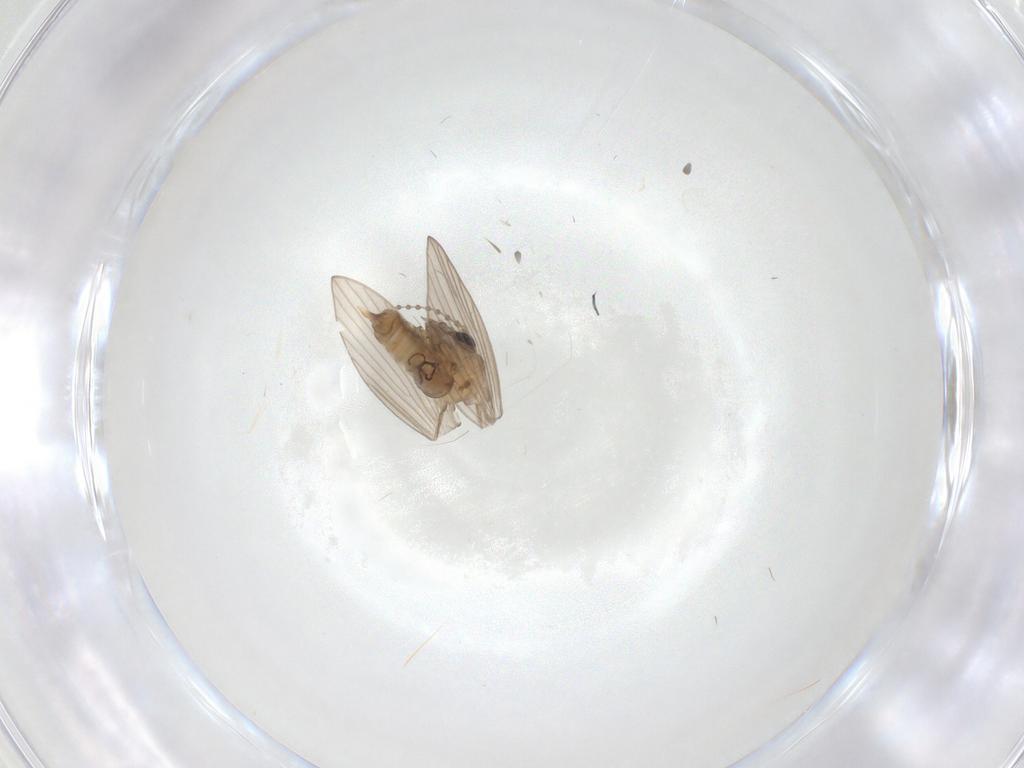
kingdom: Animalia
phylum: Arthropoda
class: Insecta
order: Diptera
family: Psychodidae
